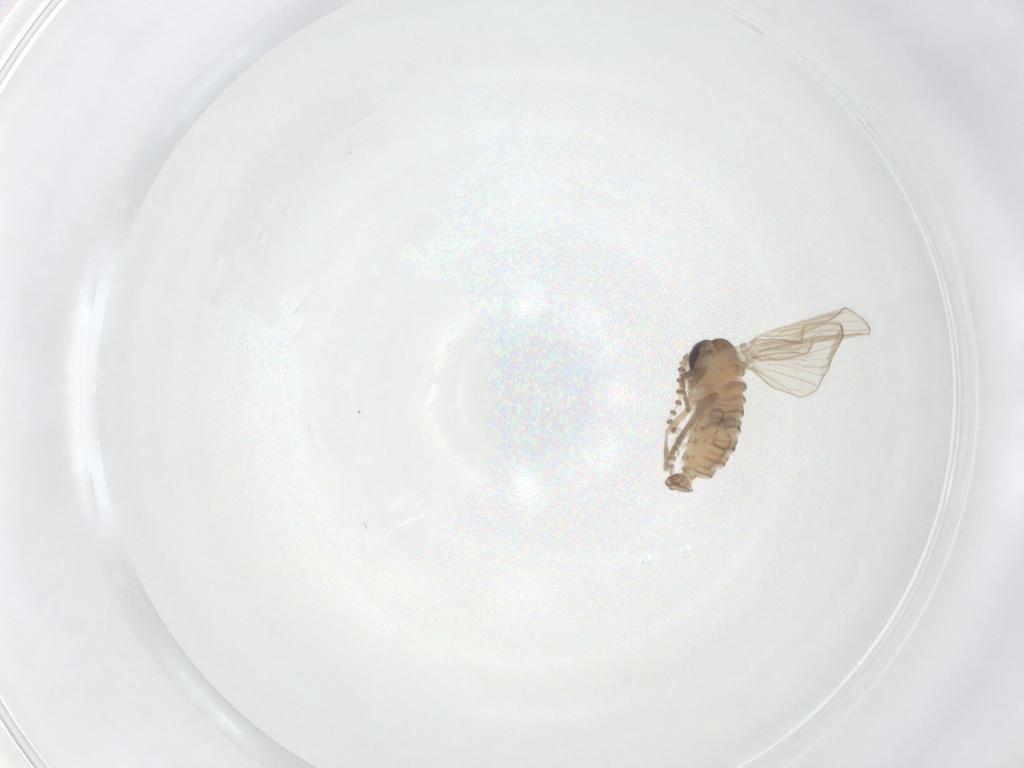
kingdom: Animalia
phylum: Arthropoda
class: Insecta
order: Diptera
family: Psychodidae
